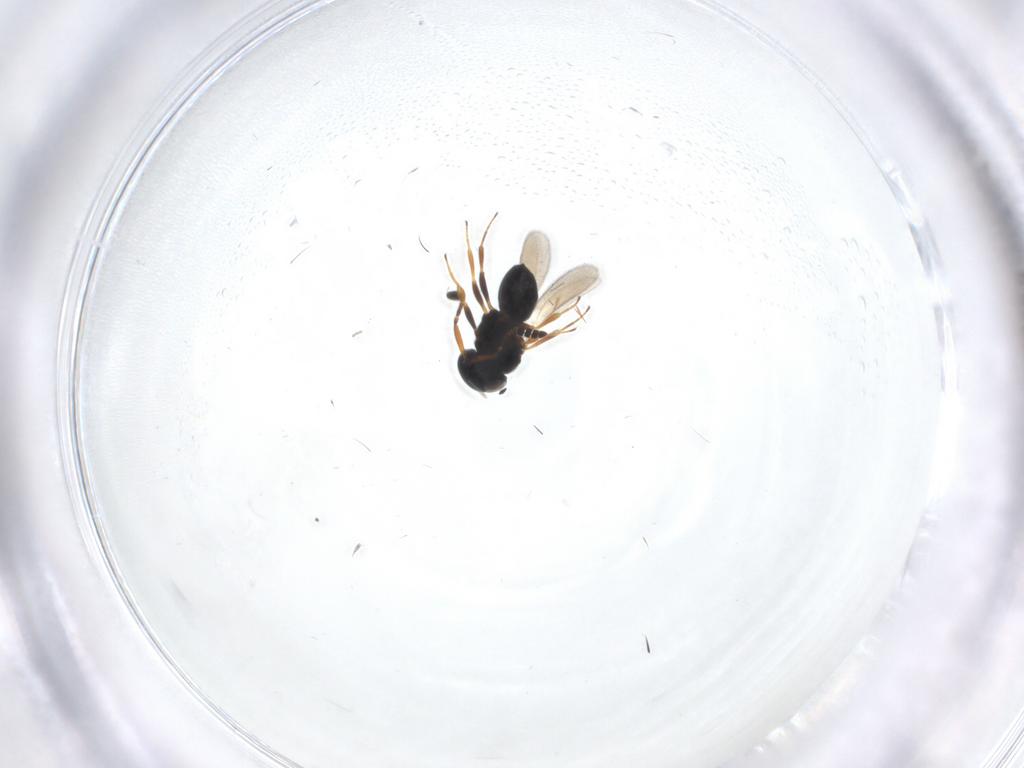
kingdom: Animalia
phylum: Arthropoda
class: Insecta
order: Hymenoptera
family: Scelionidae
